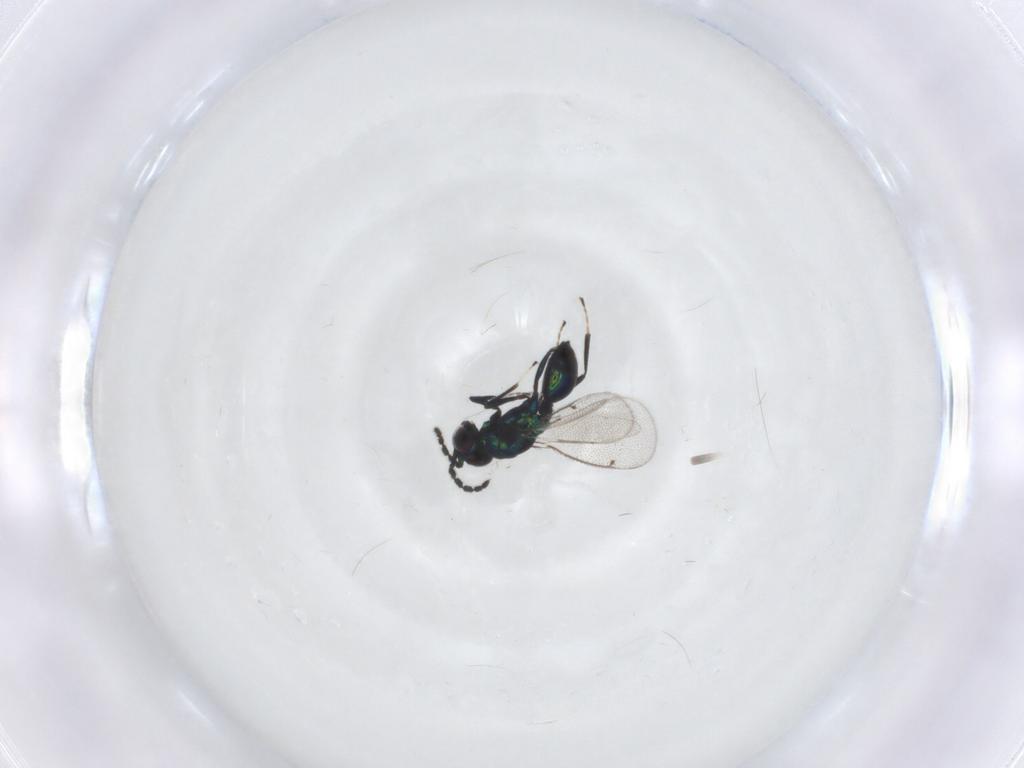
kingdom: Animalia
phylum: Arthropoda
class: Insecta
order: Hymenoptera
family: Eulophidae
